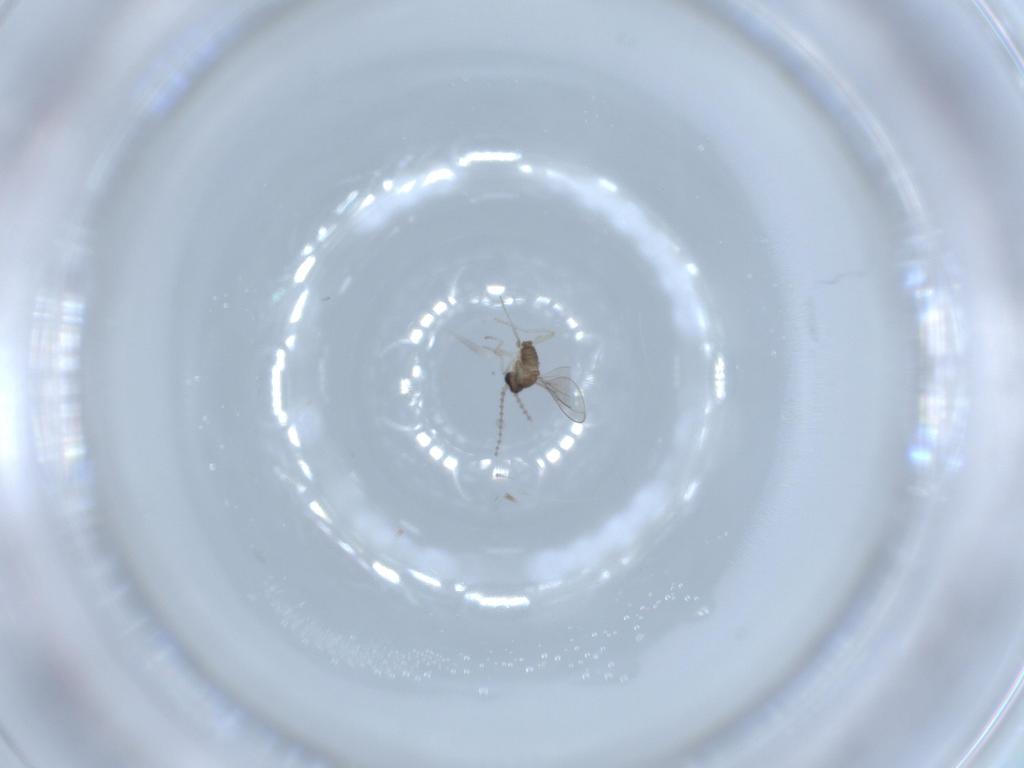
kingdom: Animalia
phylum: Arthropoda
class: Insecta
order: Diptera
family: Cecidomyiidae
